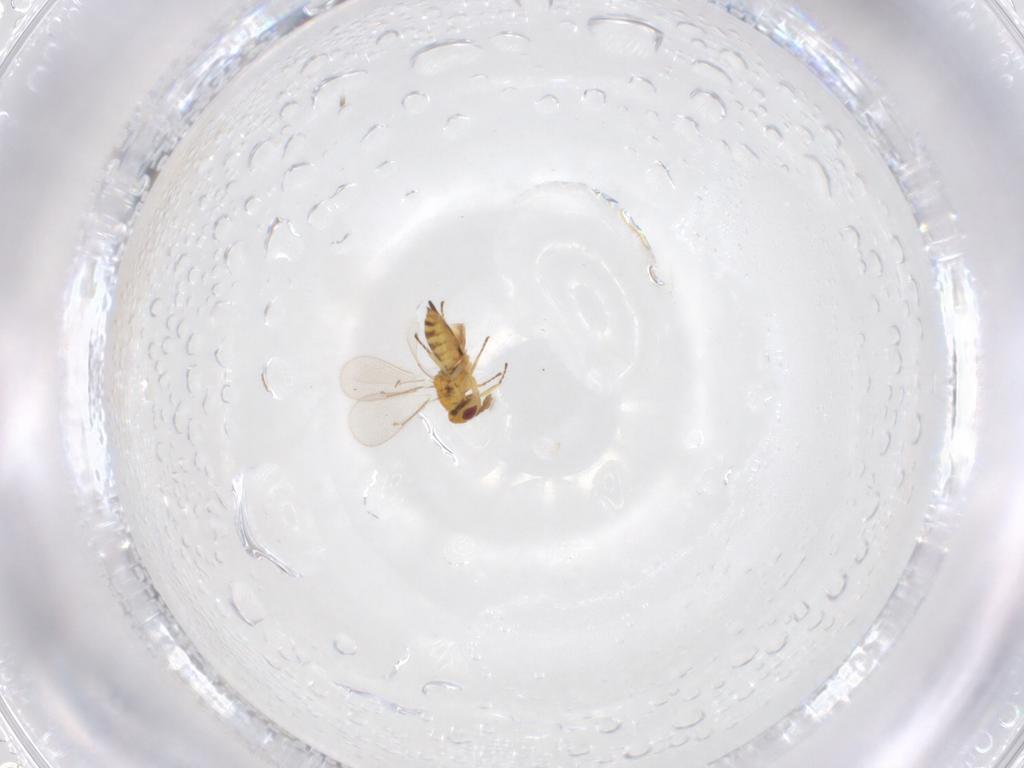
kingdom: Animalia
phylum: Arthropoda
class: Insecta
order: Hymenoptera
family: Eulophidae
